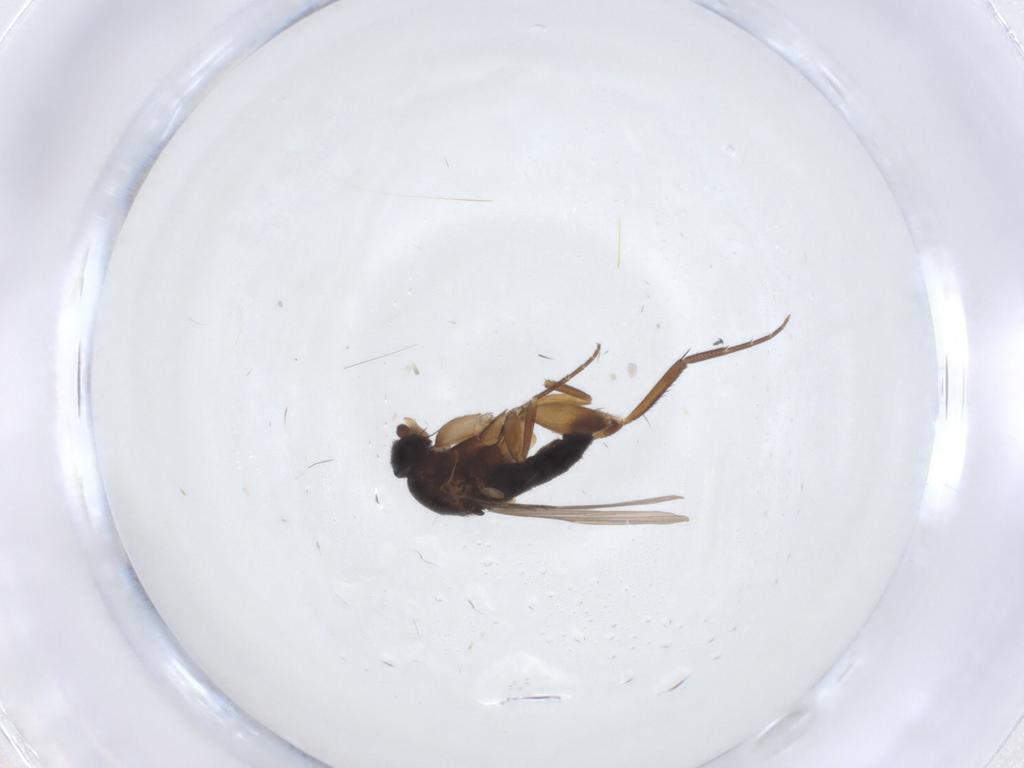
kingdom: Animalia
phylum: Arthropoda
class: Insecta
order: Diptera
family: Phoridae
